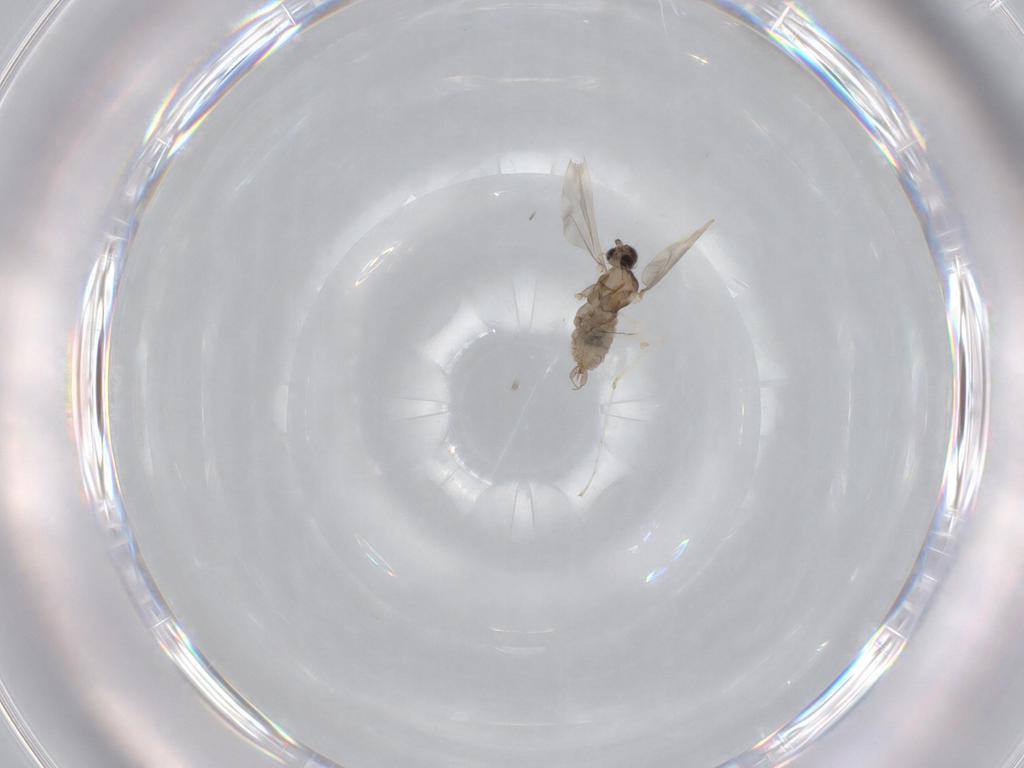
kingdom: Animalia
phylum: Arthropoda
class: Insecta
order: Diptera
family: Cecidomyiidae
